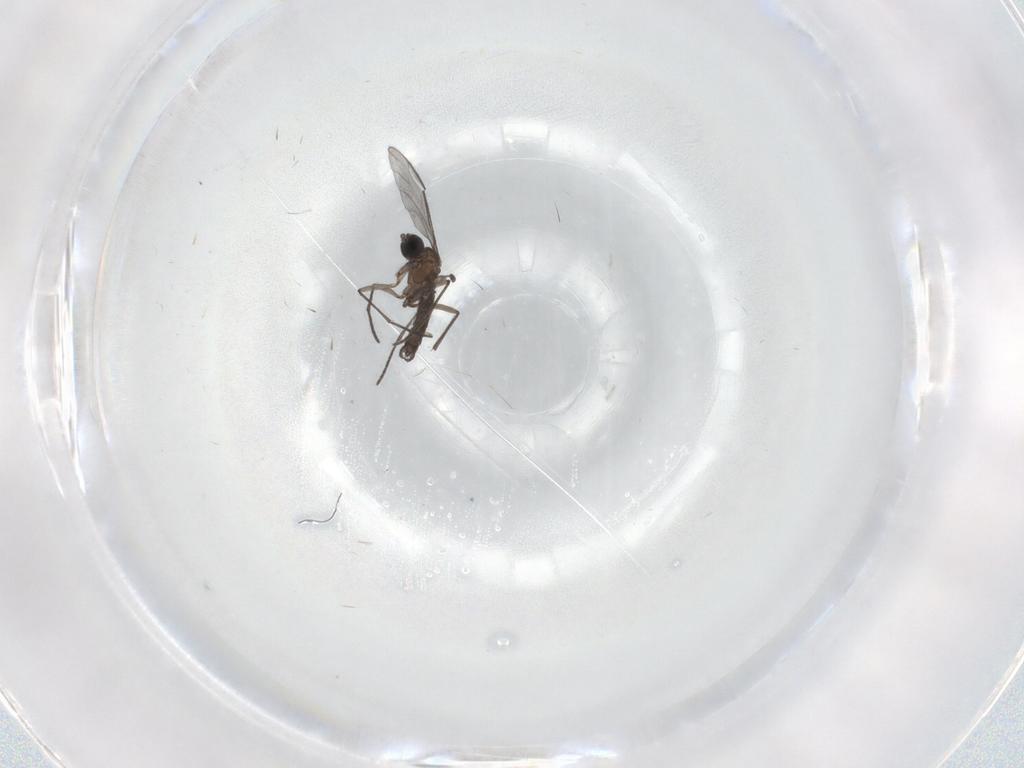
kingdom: Animalia
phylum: Arthropoda
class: Insecta
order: Diptera
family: Sciaridae
